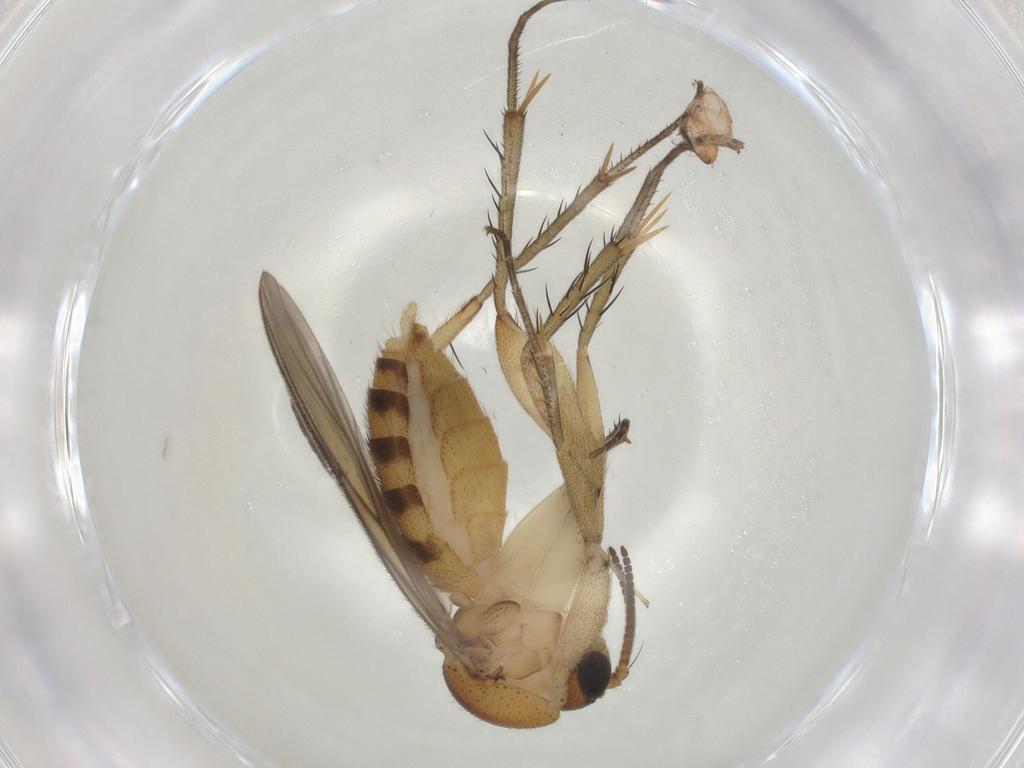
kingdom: Animalia
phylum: Arthropoda
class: Insecta
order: Diptera
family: Mycetophilidae
